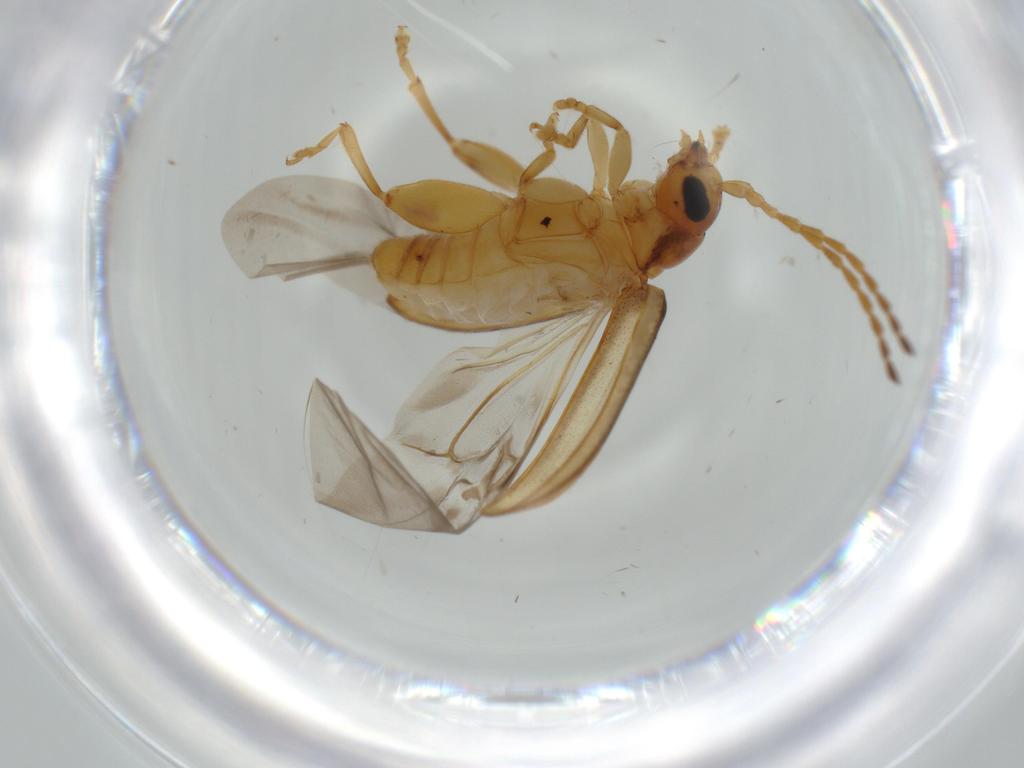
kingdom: Animalia
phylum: Arthropoda
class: Insecta
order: Coleoptera
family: Chrysomelidae
